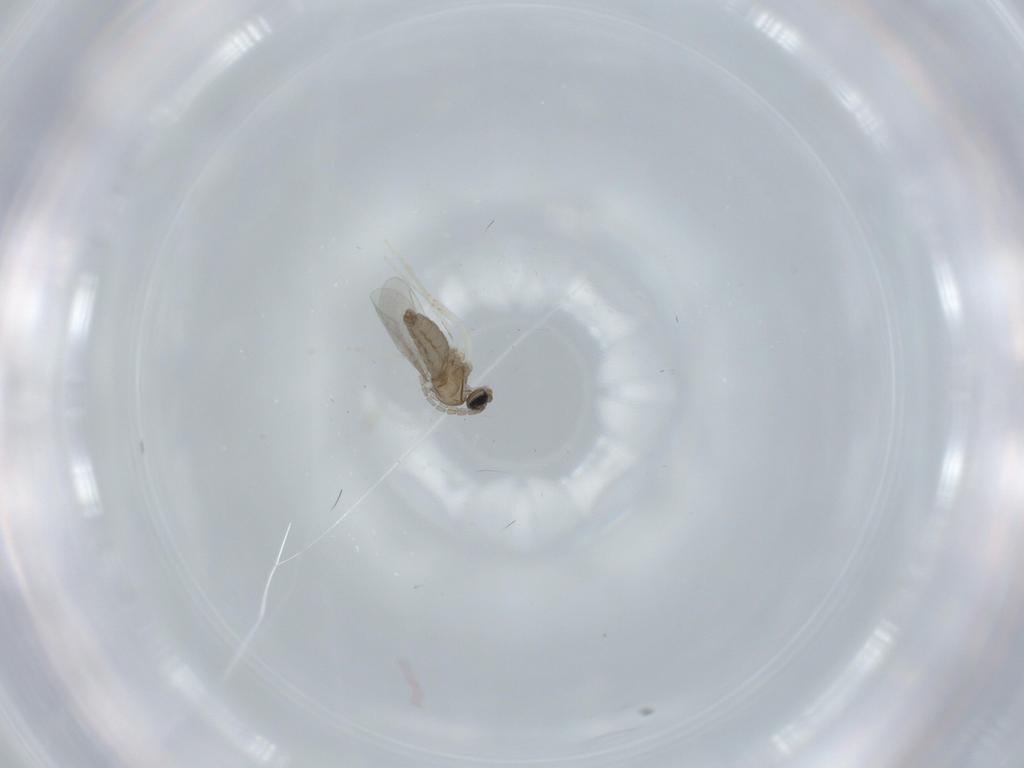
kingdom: Animalia
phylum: Arthropoda
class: Insecta
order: Diptera
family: Cecidomyiidae
